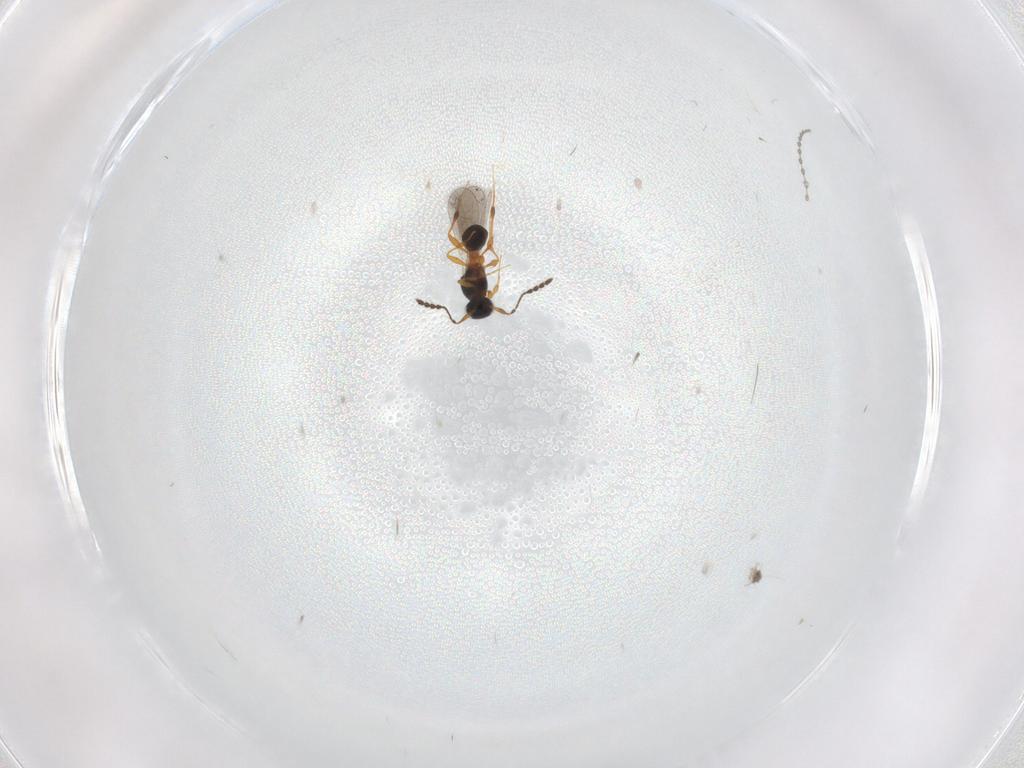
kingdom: Animalia
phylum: Arthropoda
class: Insecta
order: Hymenoptera
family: Platygastridae
